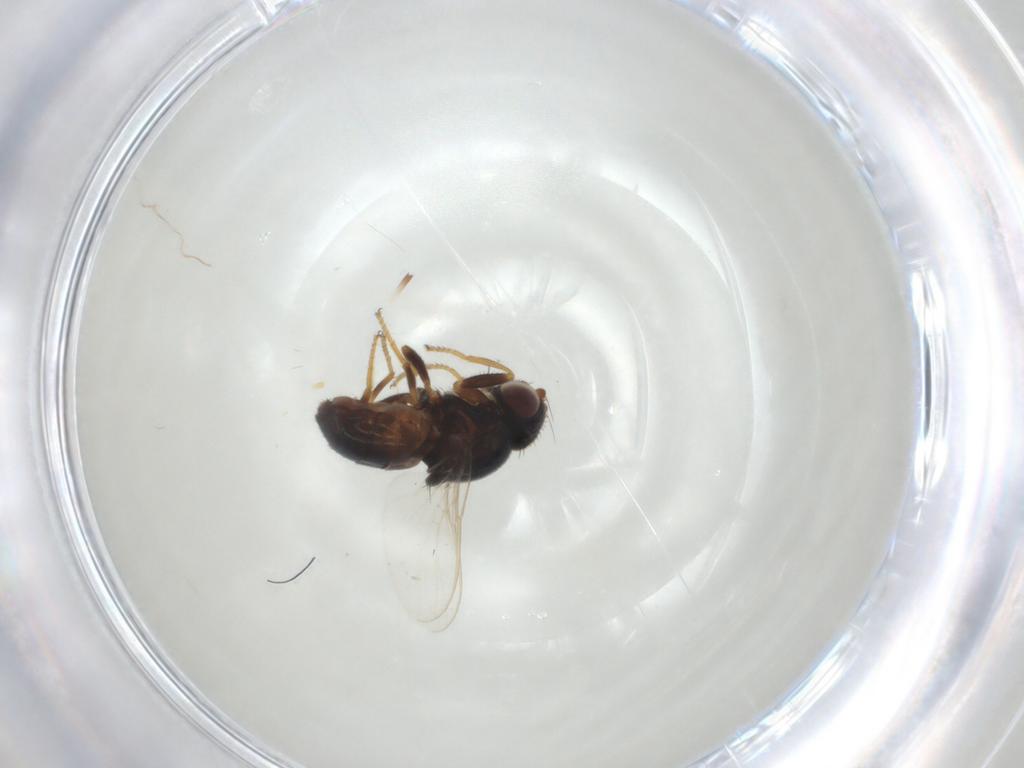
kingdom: Animalia
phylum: Arthropoda
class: Insecta
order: Diptera
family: Chloropidae
